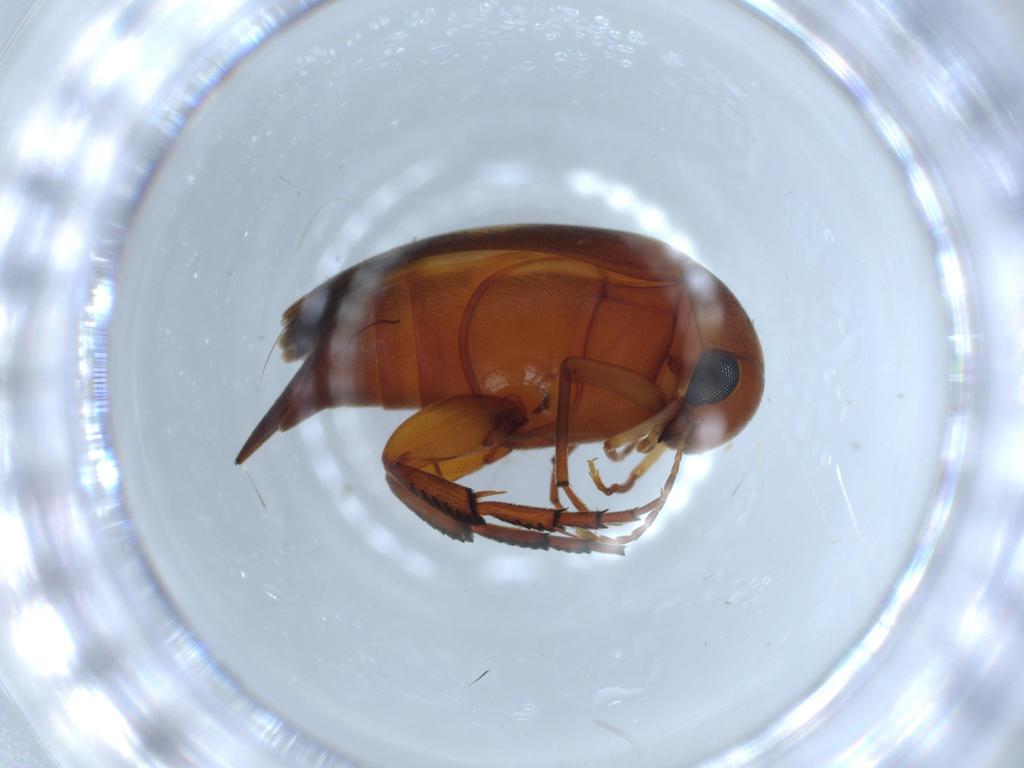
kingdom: Animalia
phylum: Arthropoda
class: Insecta
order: Coleoptera
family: Mordellidae
